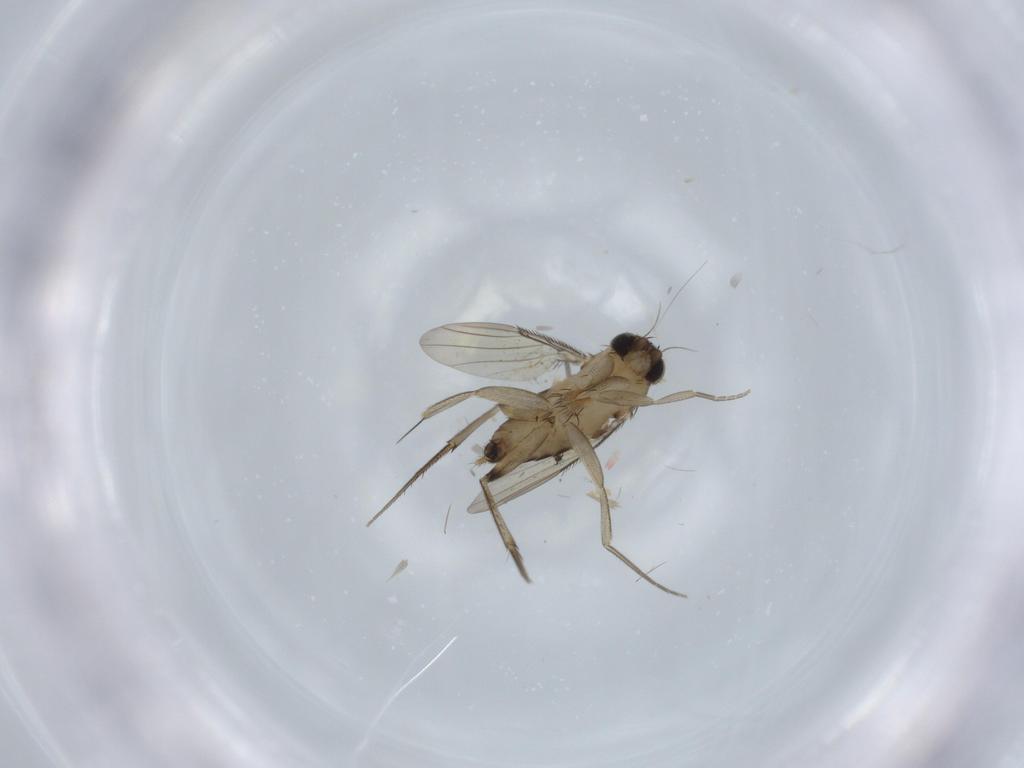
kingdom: Animalia
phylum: Arthropoda
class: Insecta
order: Diptera
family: Phoridae
